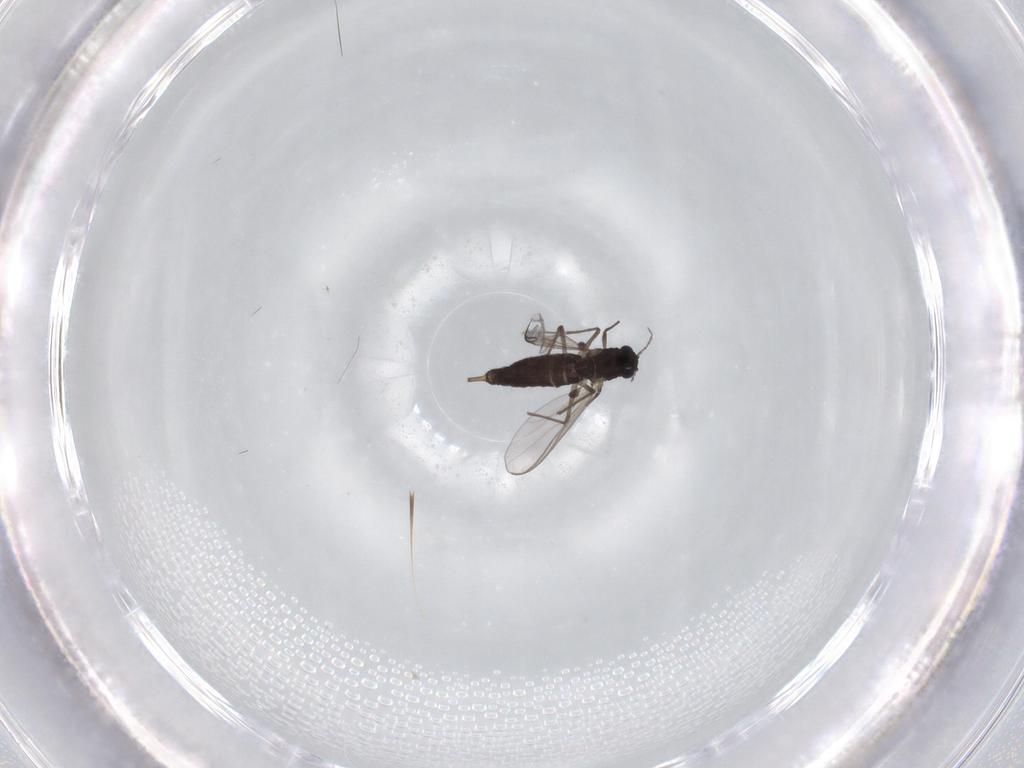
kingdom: Animalia
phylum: Arthropoda
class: Insecta
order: Diptera
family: Chironomidae
